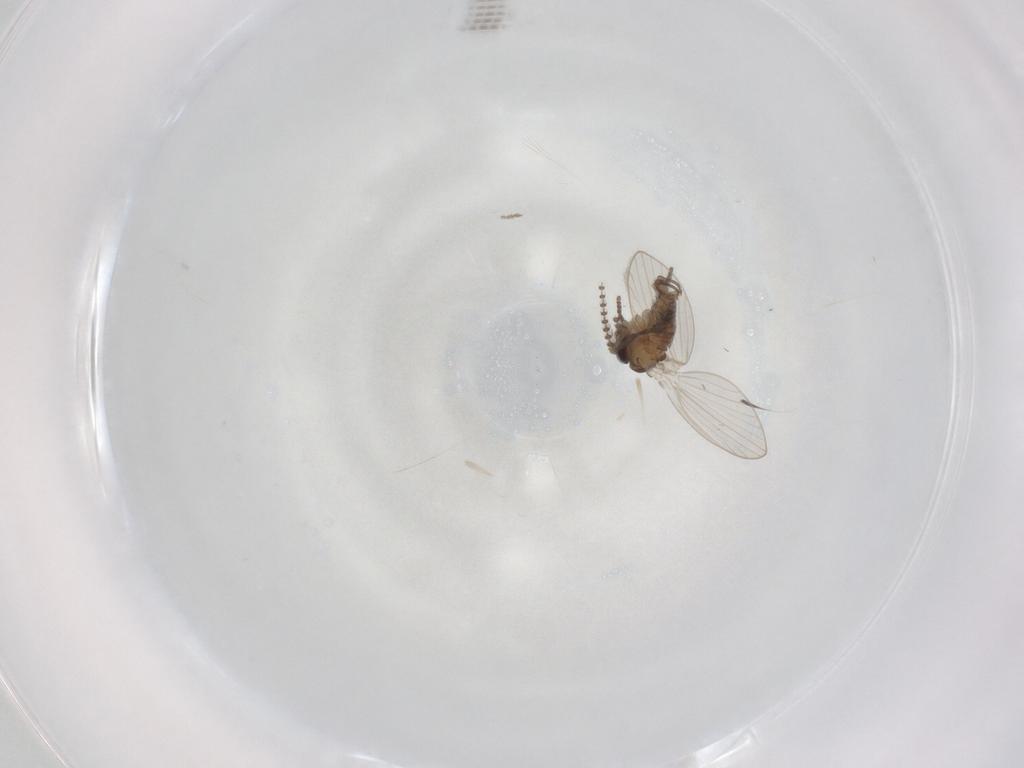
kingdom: Animalia
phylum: Arthropoda
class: Insecta
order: Diptera
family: Psychodidae
